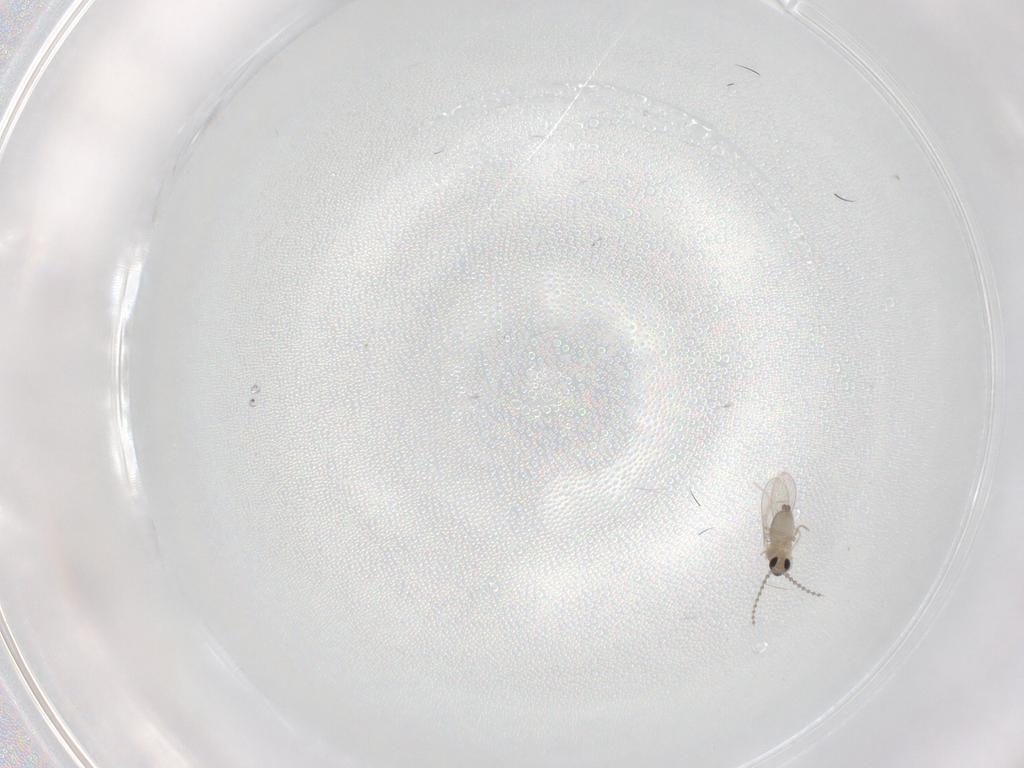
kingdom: Animalia
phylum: Arthropoda
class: Insecta
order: Diptera
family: Cecidomyiidae
